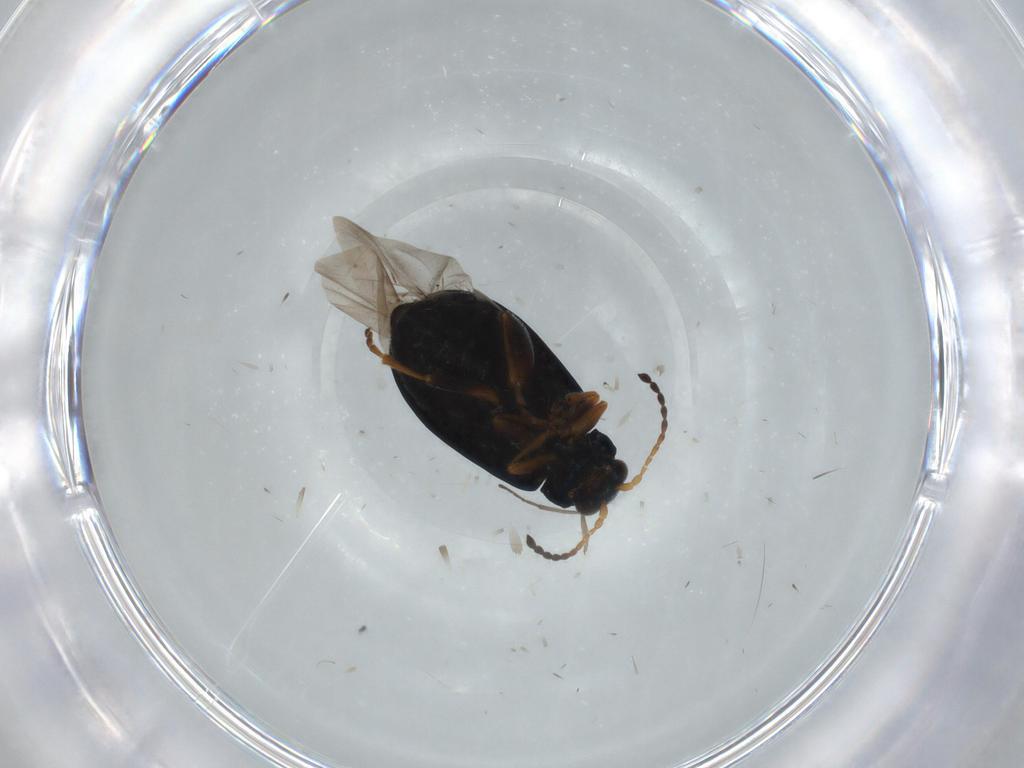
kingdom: Animalia
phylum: Arthropoda
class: Insecta
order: Coleoptera
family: Chrysomelidae
